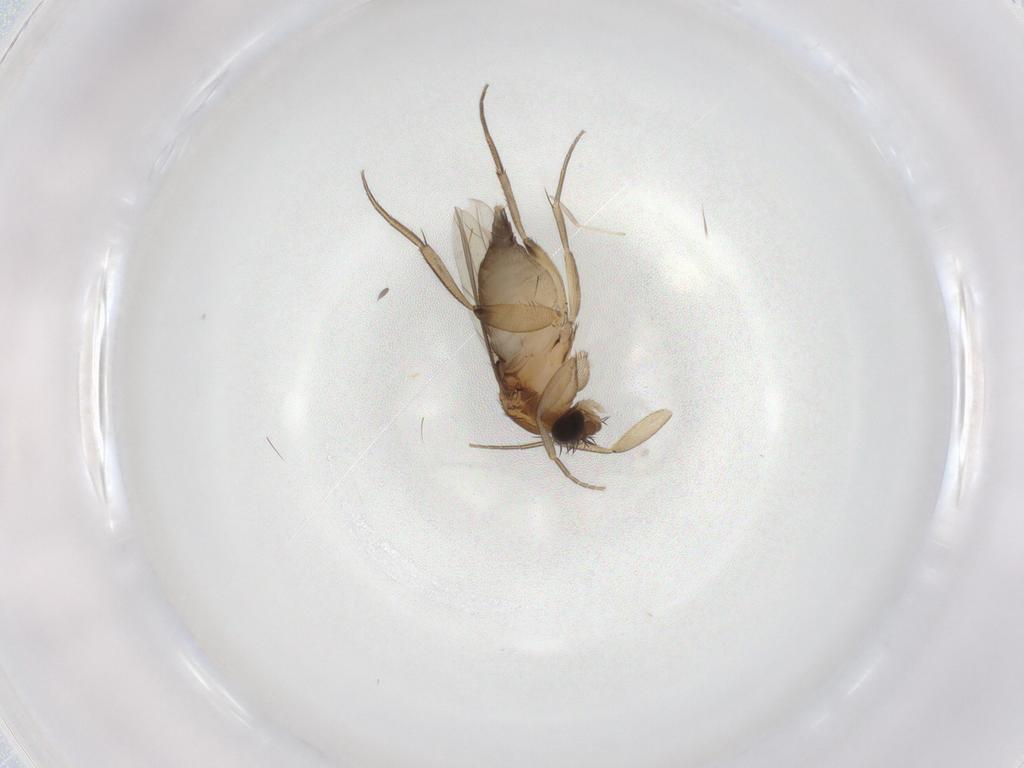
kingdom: Animalia
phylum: Arthropoda
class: Insecta
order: Diptera
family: Phoridae
